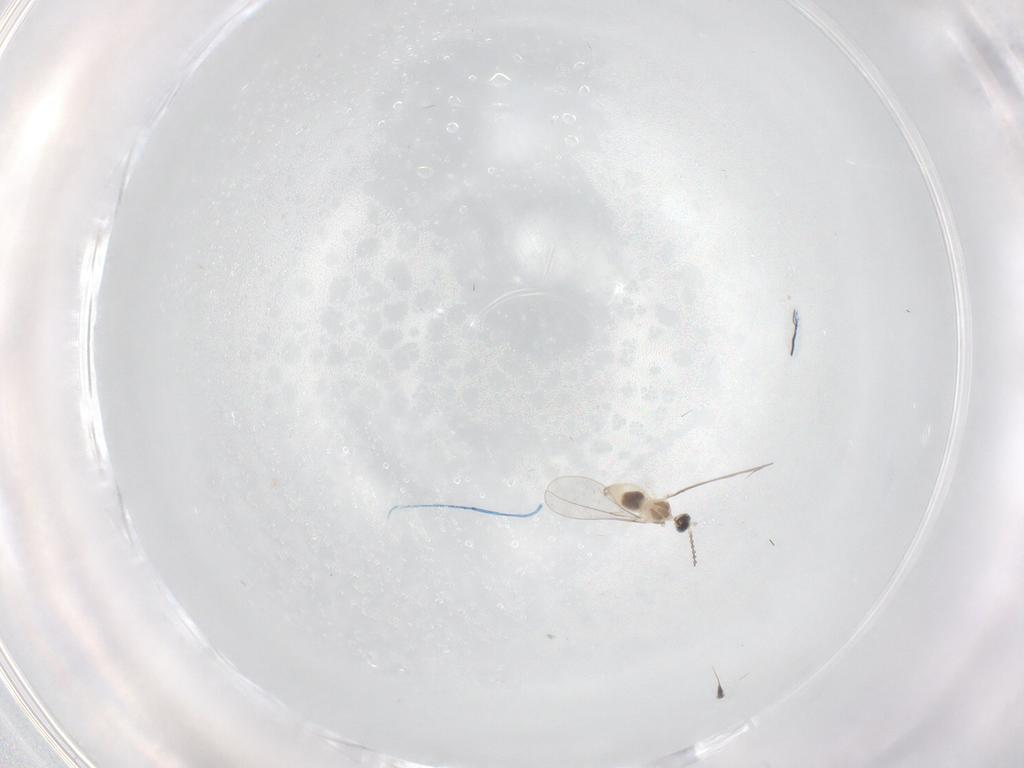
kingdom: Animalia
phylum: Arthropoda
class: Insecta
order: Diptera
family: Cecidomyiidae
